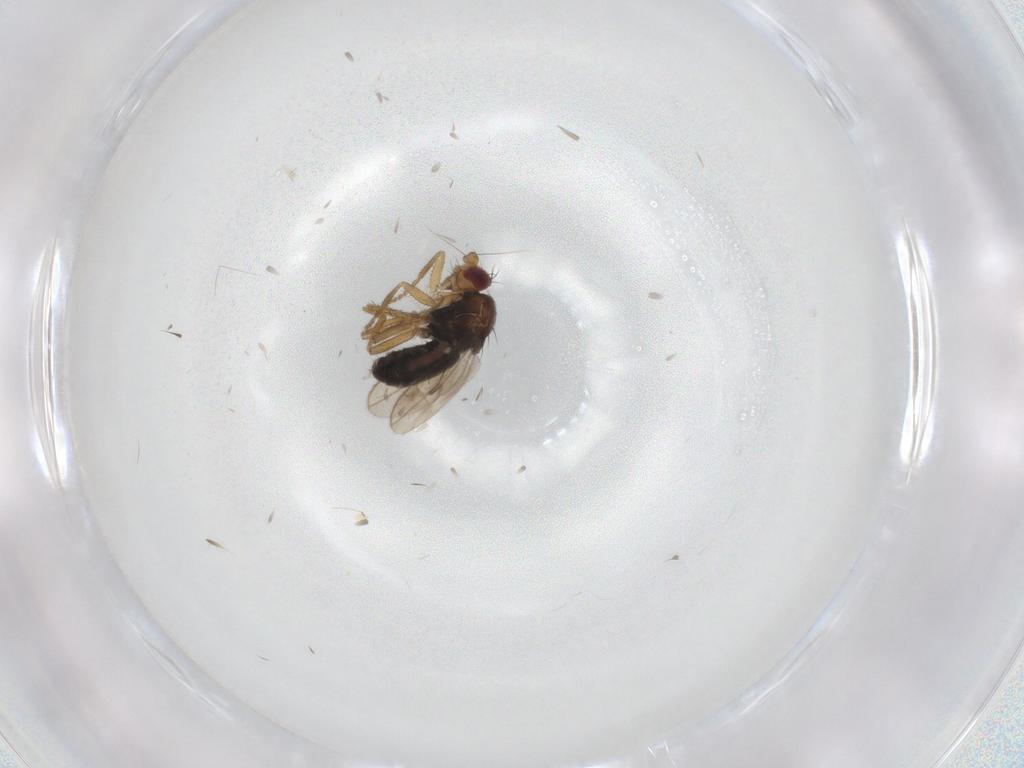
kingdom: Animalia
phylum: Arthropoda
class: Insecta
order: Diptera
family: Sphaeroceridae
